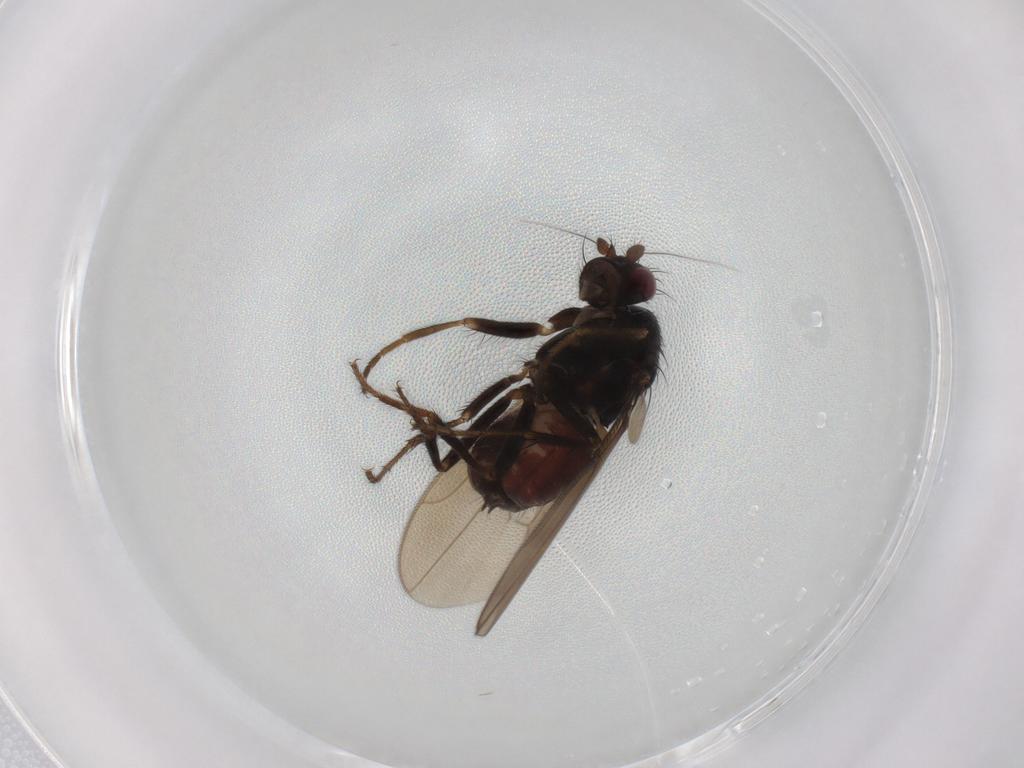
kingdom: Animalia
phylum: Arthropoda
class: Insecta
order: Diptera
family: Sphaeroceridae
